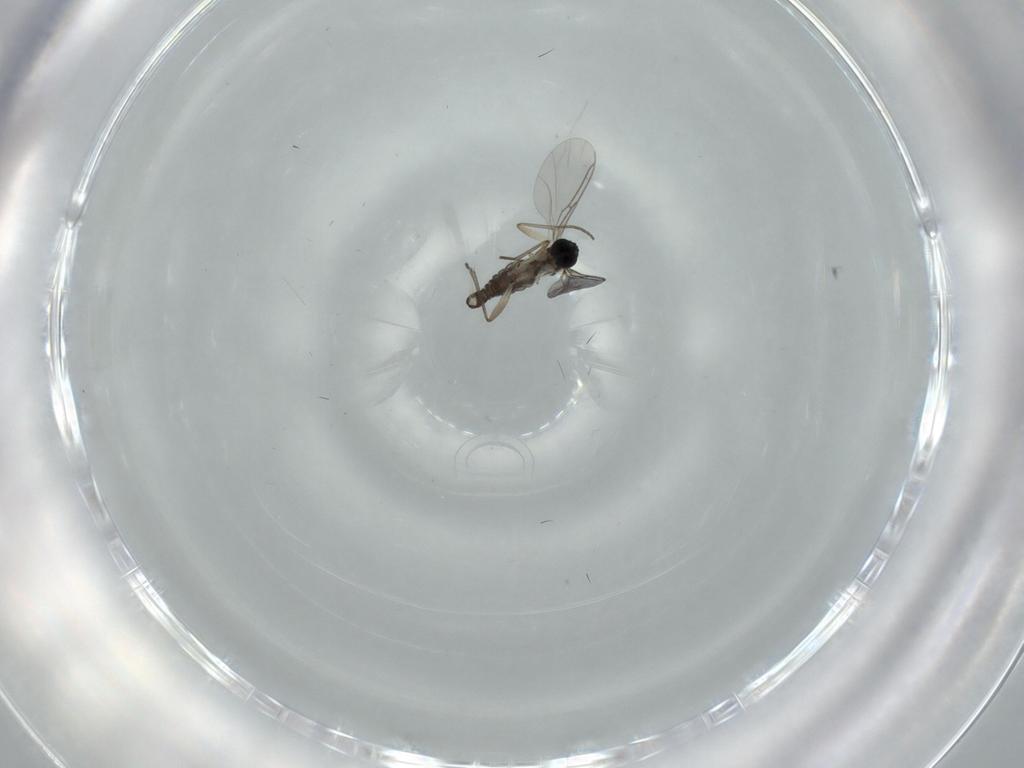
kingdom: Animalia
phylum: Arthropoda
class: Insecta
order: Diptera
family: Sciaridae
